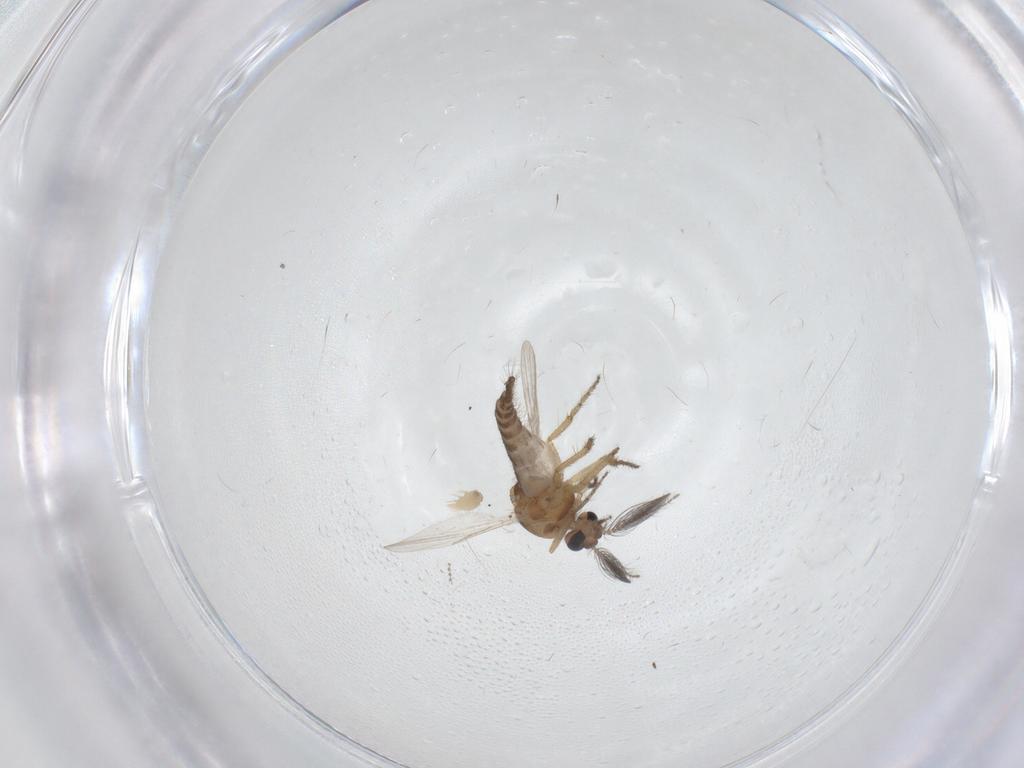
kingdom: Animalia
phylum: Arthropoda
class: Insecta
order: Diptera
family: Ceratopogonidae
